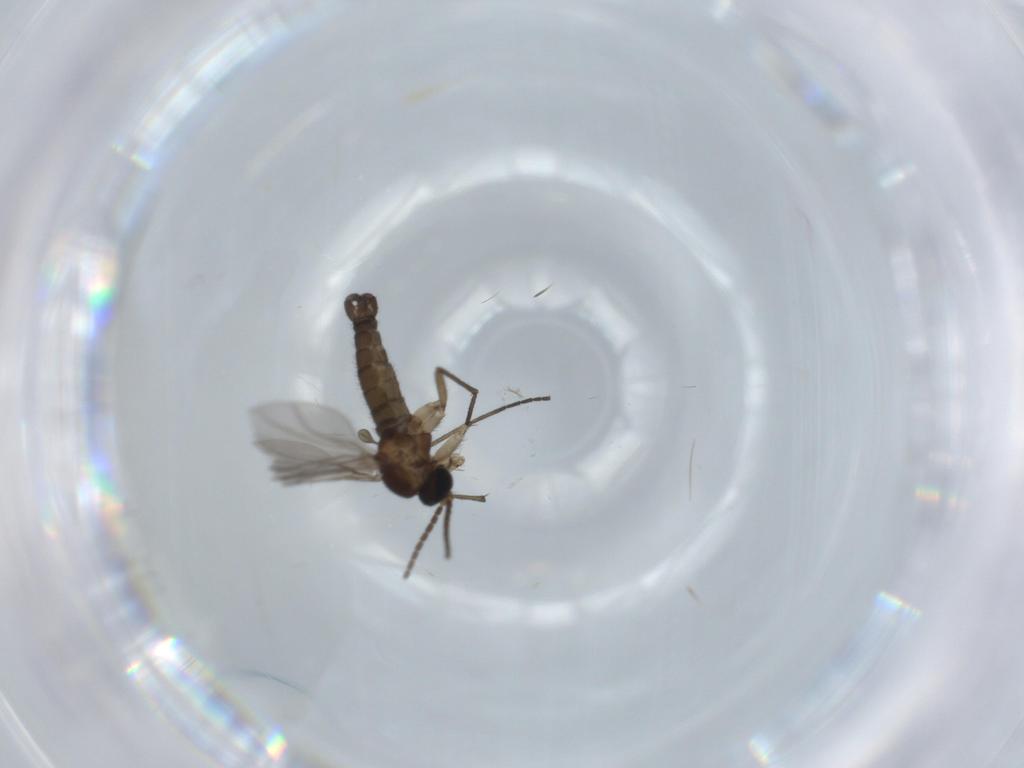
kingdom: Animalia
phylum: Arthropoda
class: Insecta
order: Diptera
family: Sciaridae
